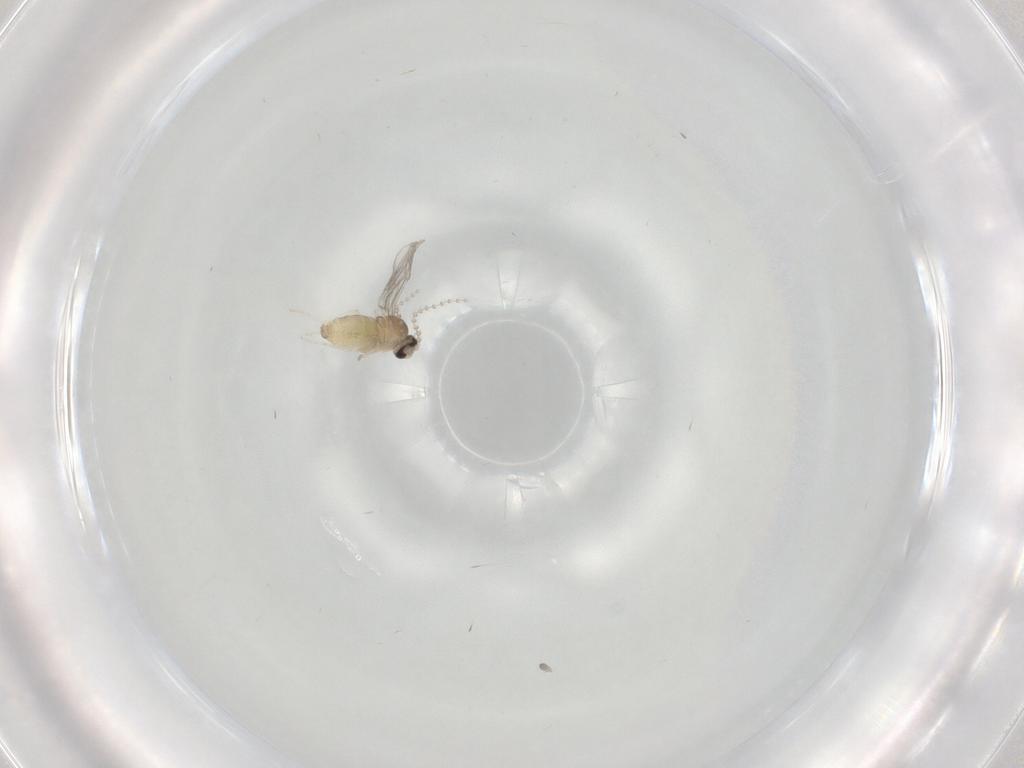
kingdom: Animalia
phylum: Arthropoda
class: Insecta
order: Diptera
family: Cecidomyiidae
